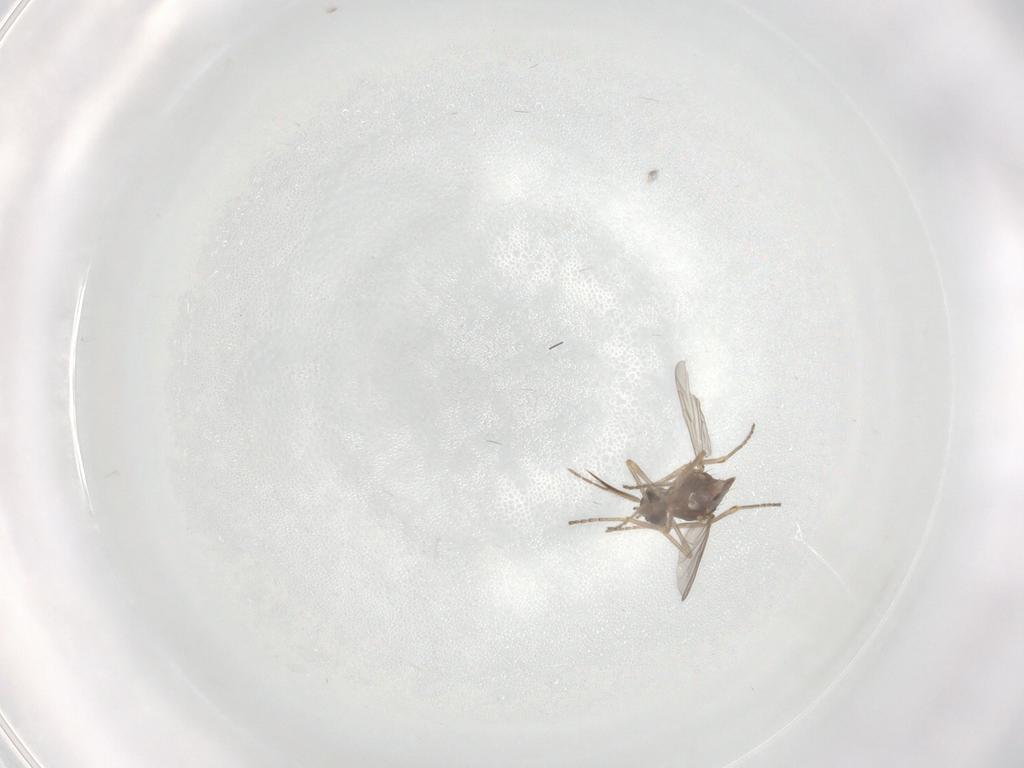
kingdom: Animalia
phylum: Arthropoda
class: Insecta
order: Diptera
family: Ceratopogonidae
